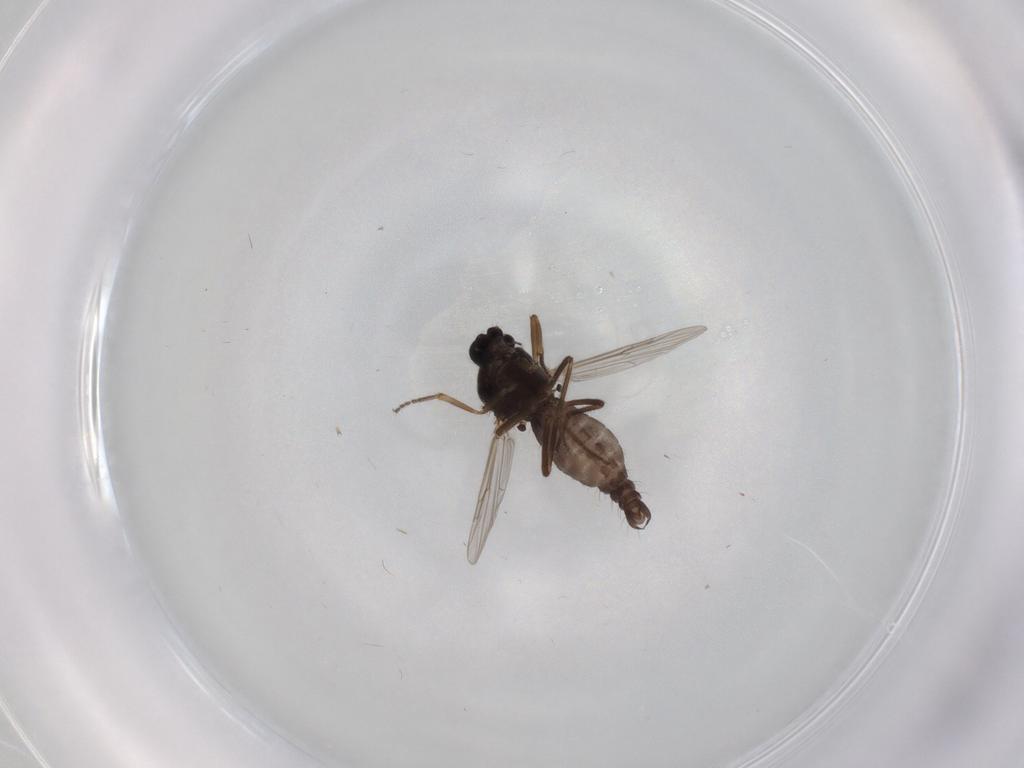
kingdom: Animalia
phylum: Arthropoda
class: Insecta
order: Diptera
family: Ceratopogonidae
